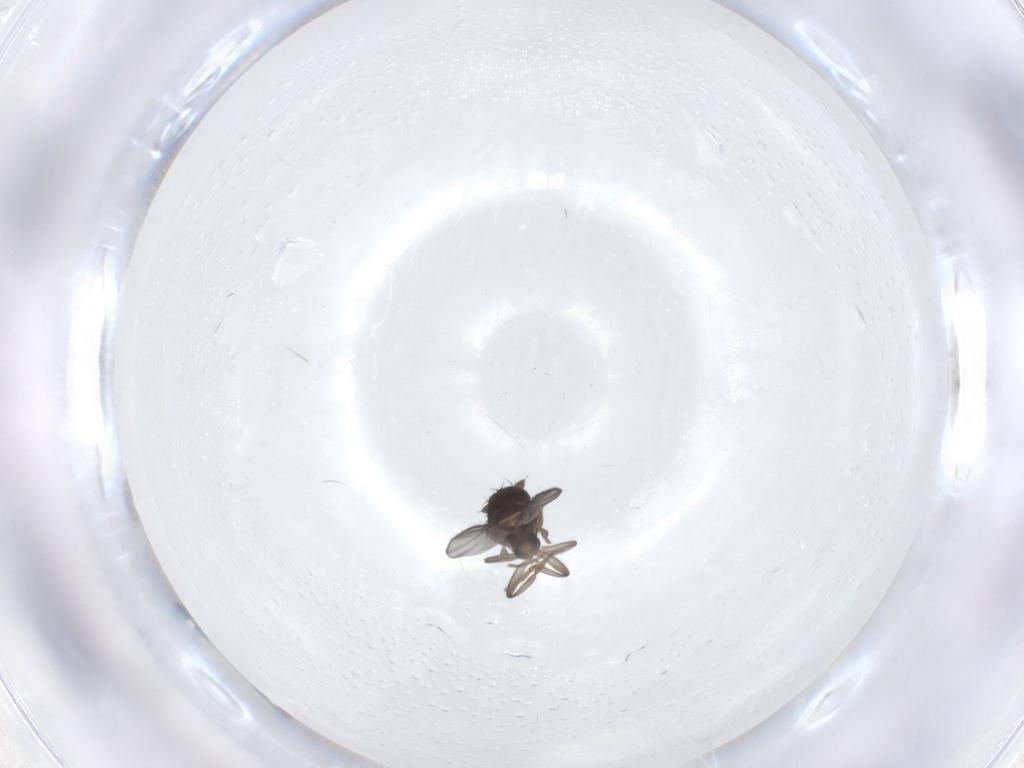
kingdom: Animalia
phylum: Arthropoda
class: Insecta
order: Diptera
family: Sphaeroceridae
